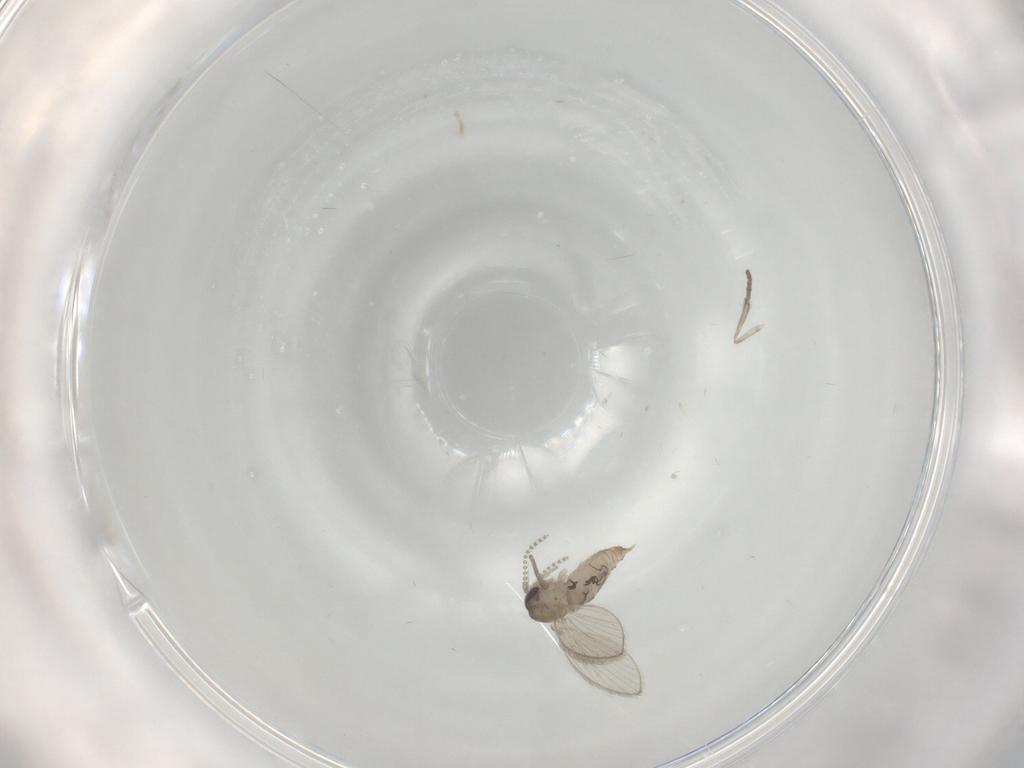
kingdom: Animalia
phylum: Arthropoda
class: Insecta
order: Diptera
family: Psychodidae
